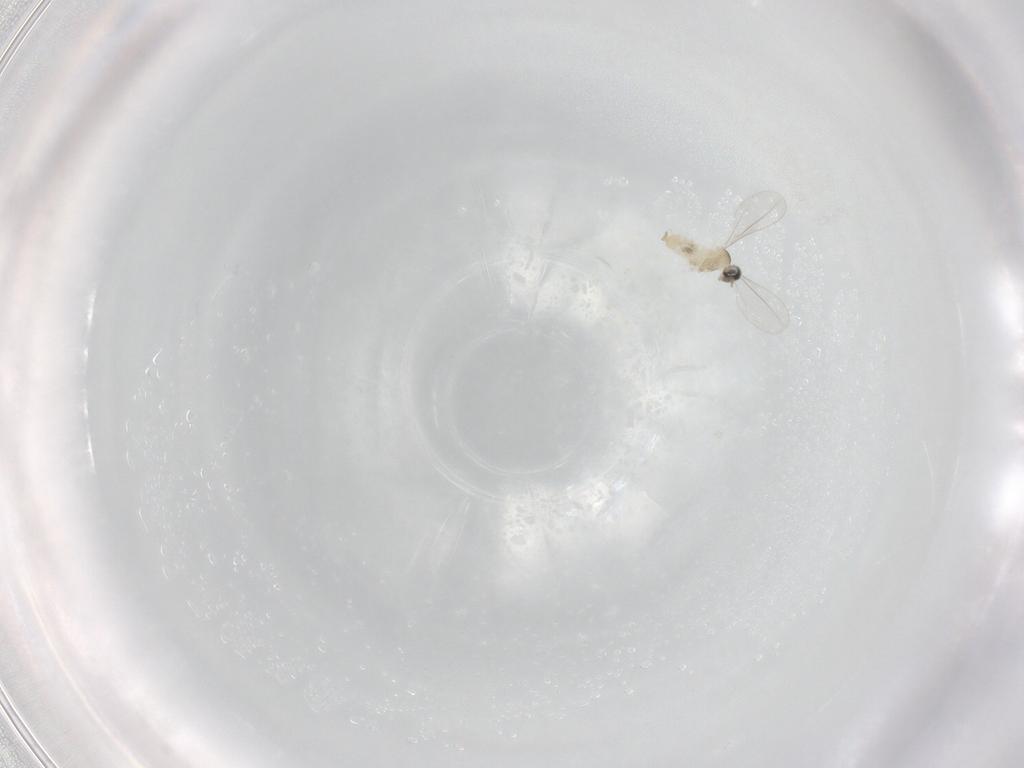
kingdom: Animalia
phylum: Arthropoda
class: Insecta
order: Diptera
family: Cecidomyiidae
